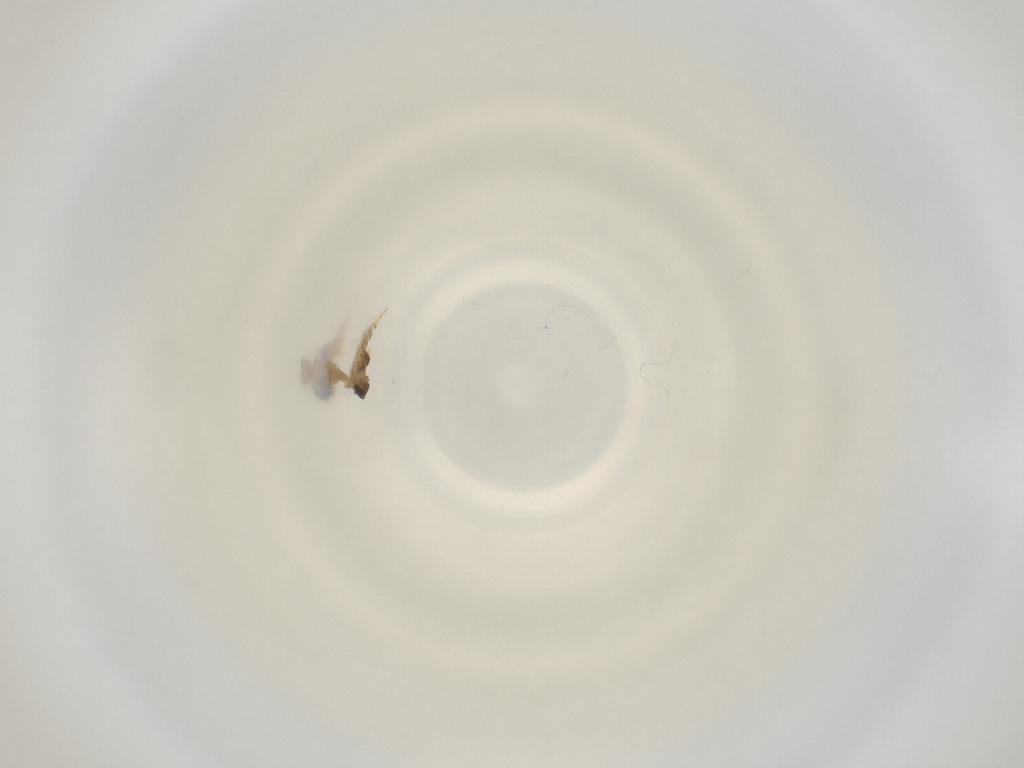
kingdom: Animalia
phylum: Arthropoda
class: Insecta
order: Diptera
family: Cecidomyiidae
